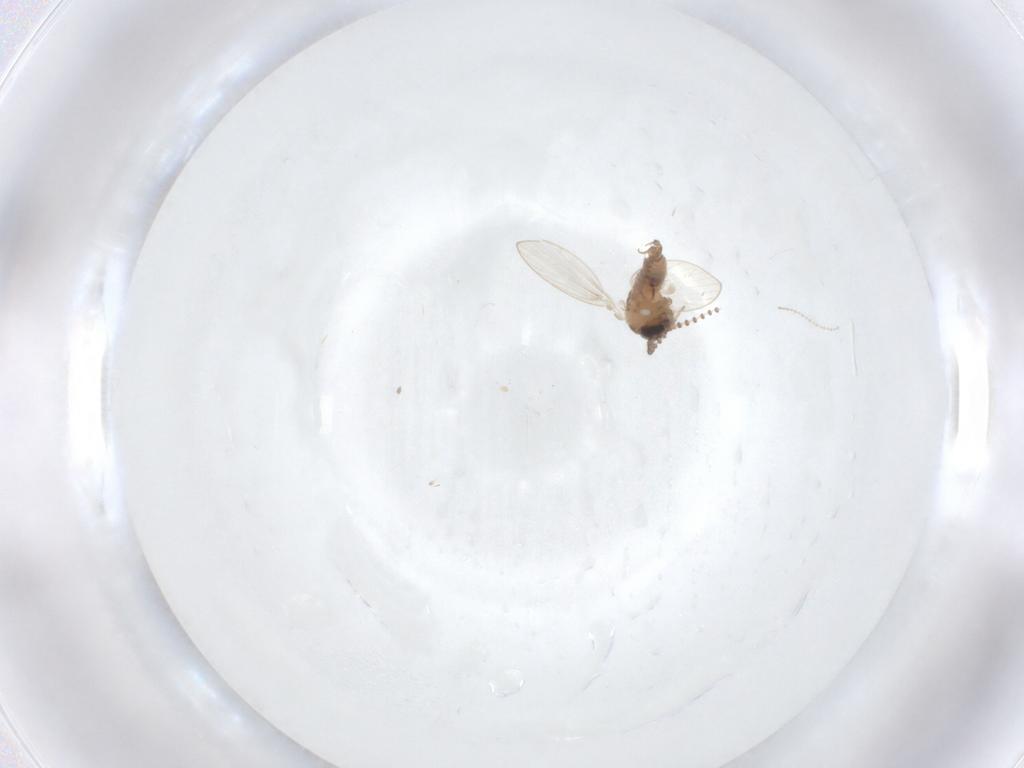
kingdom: Animalia
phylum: Arthropoda
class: Insecta
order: Diptera
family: Psychodidae
